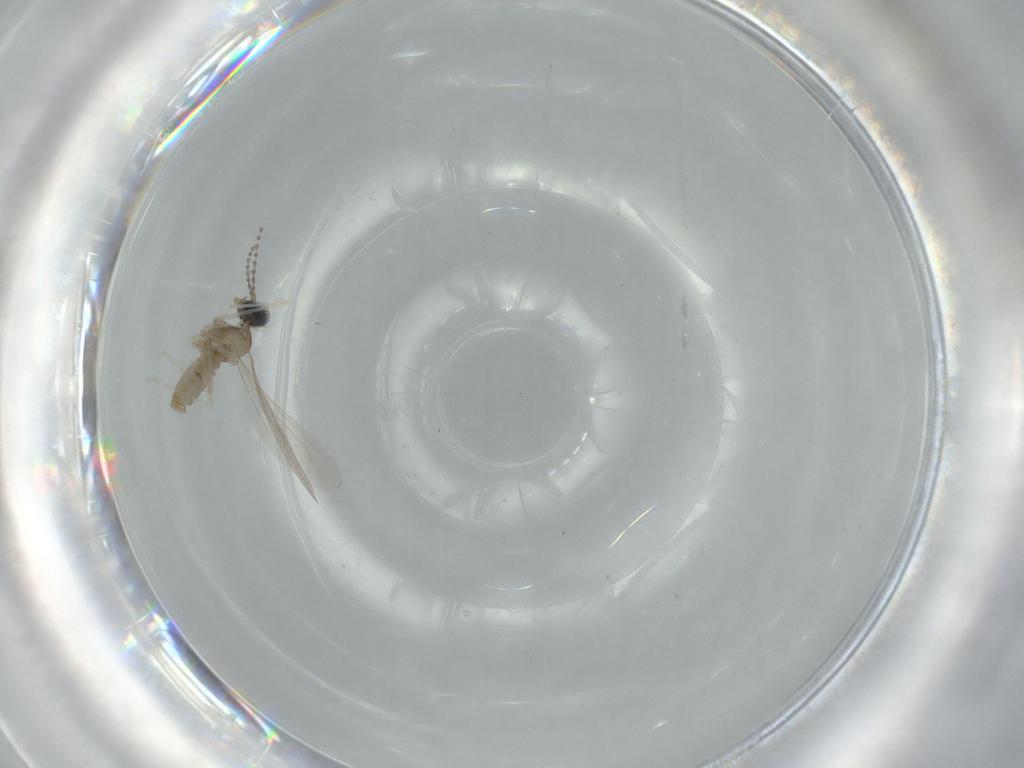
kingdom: Animalia
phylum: Arthropoda
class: Insecta
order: Diptera
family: Cecidomyiidae
